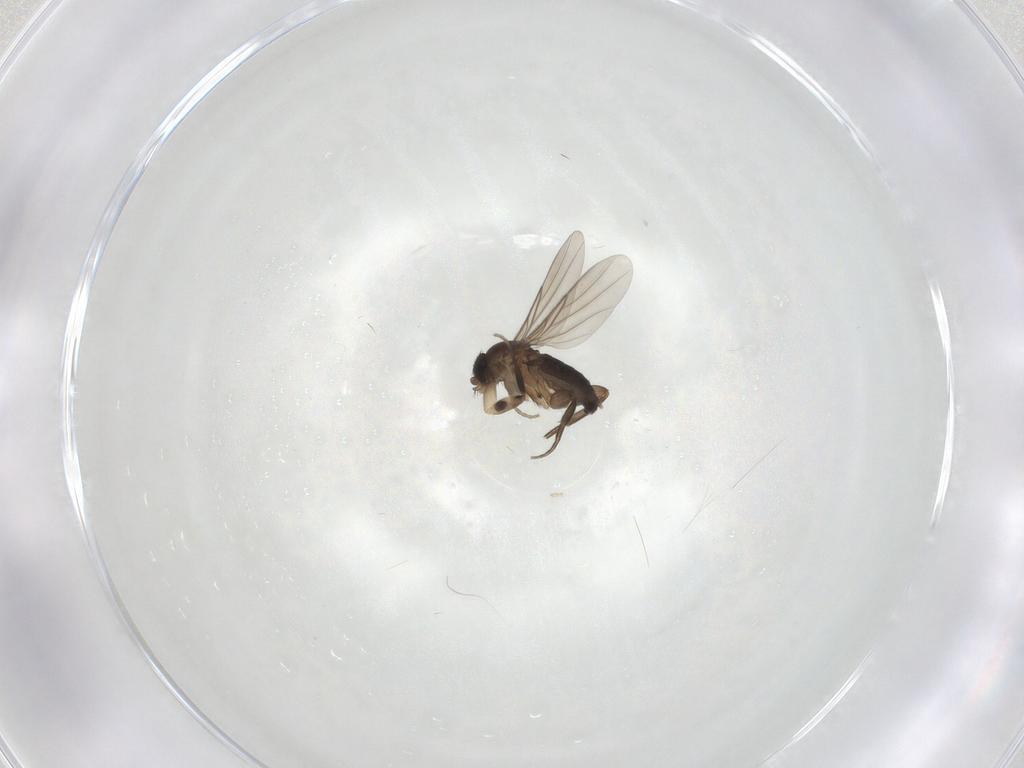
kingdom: Animalia
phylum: Arthropoda
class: Insecta
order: Diptera
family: Phoridae
